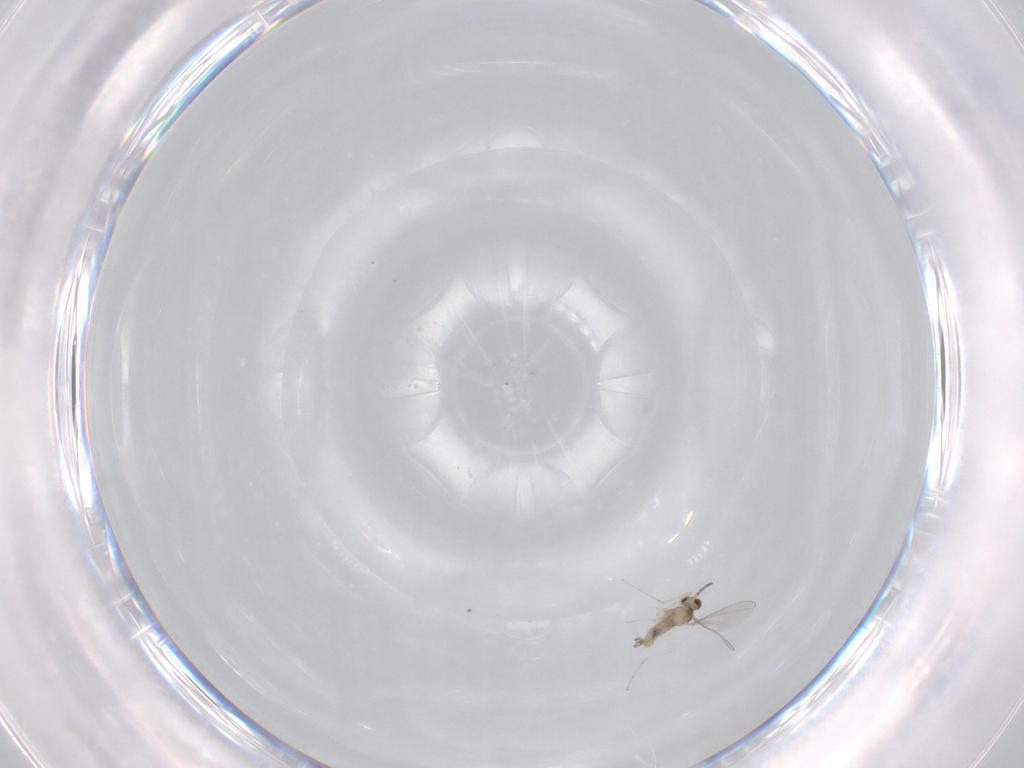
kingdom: Animalia
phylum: Arthropoda
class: Insecta
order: Diptera
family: Cecidomyiidae
